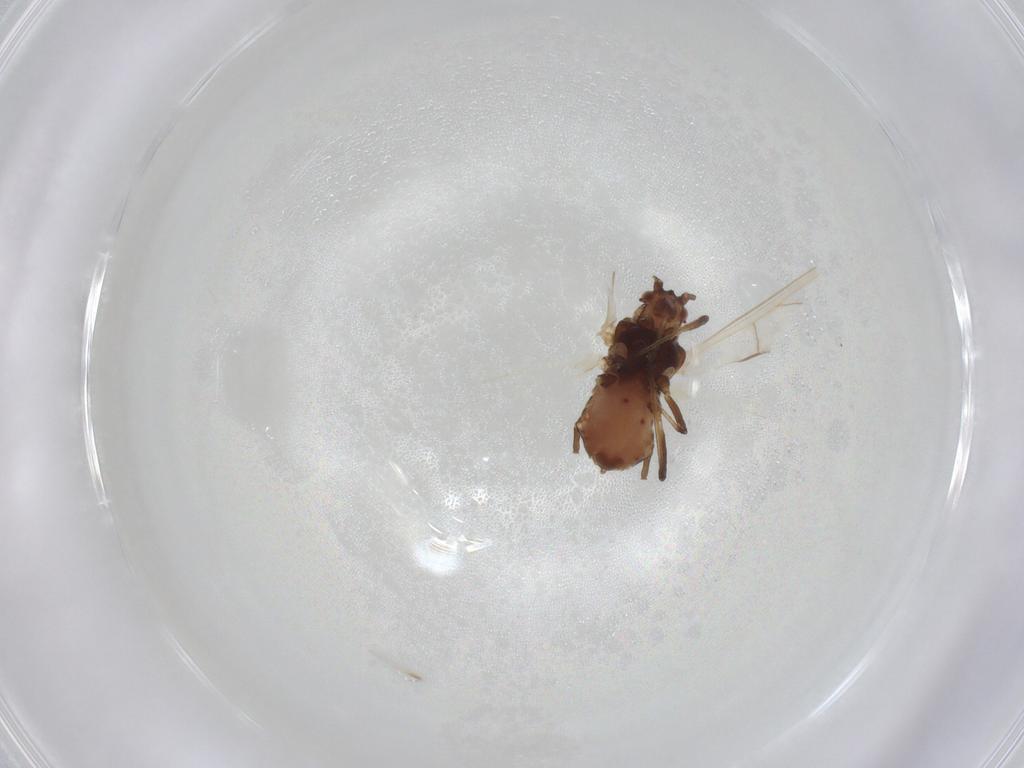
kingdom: Animalia
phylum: Arthropoda
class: Insecta
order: Hemiptera
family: Aphididae
